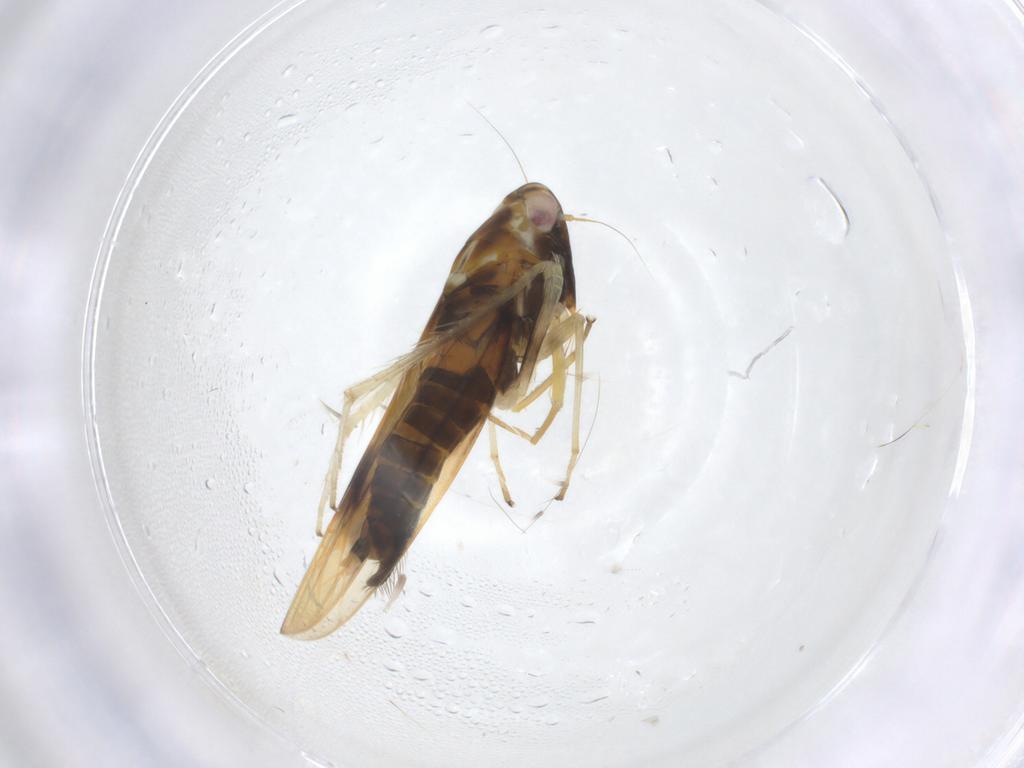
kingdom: Animalia
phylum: Arthropoda
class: Insecta
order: Hemiptera
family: Cicadellidae
